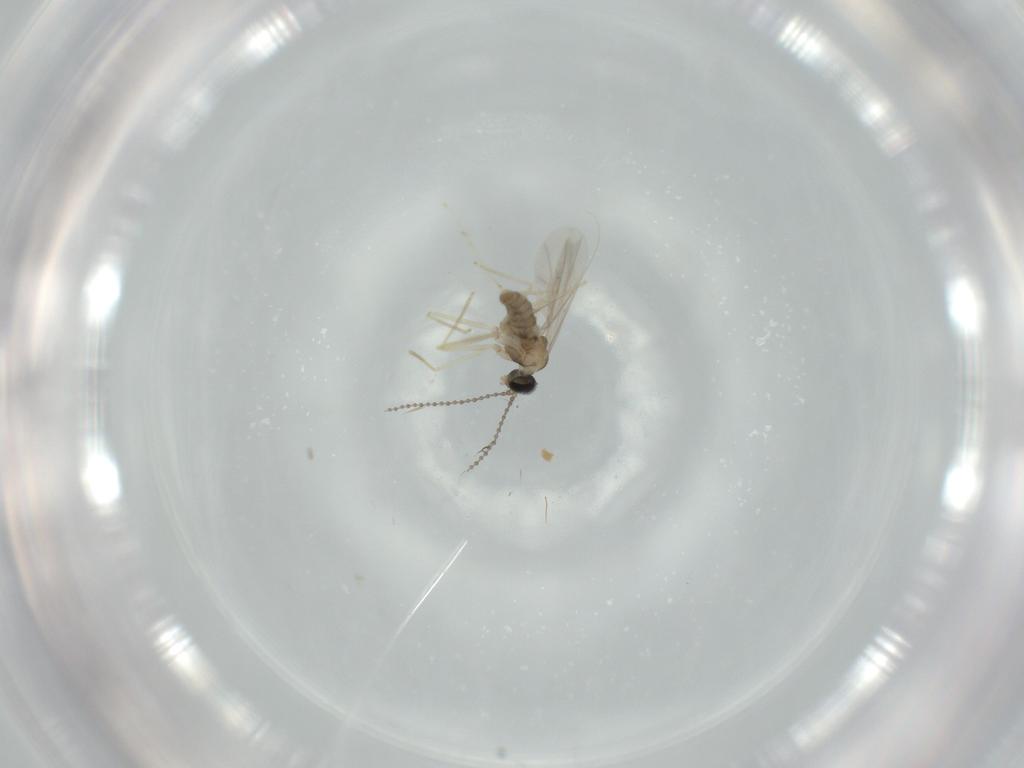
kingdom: Animalia
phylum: Arthropoda
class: Insecta
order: Diptera
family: Cecidomyiidae
